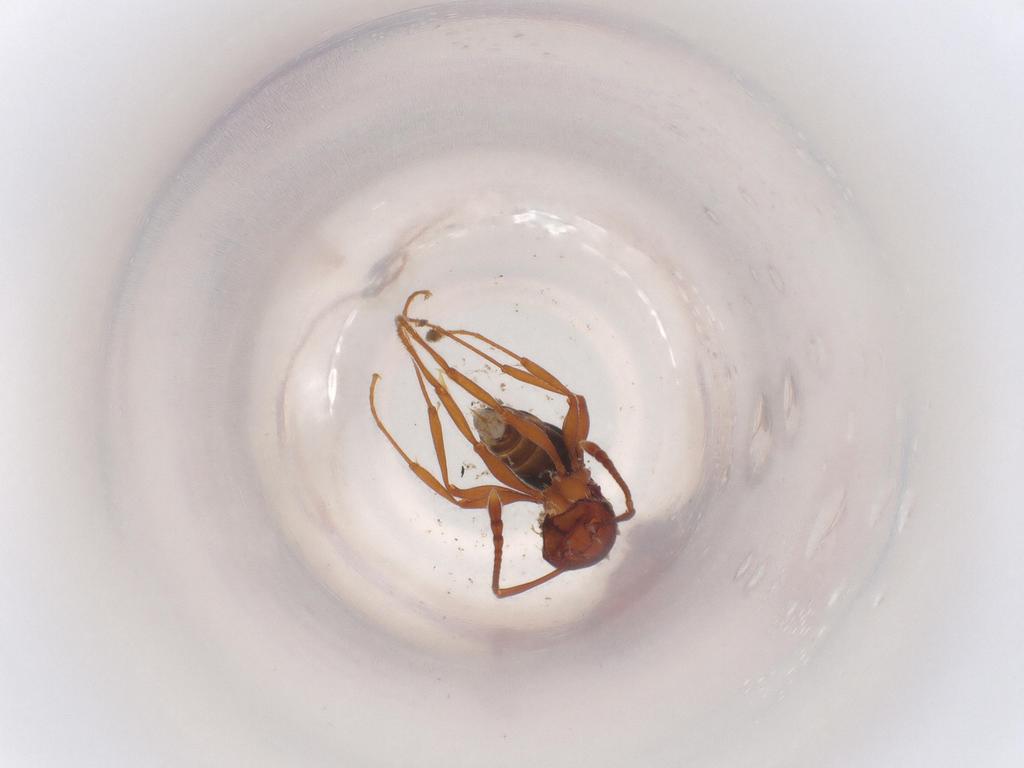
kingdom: Animalia
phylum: Arthropoda
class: Insecta
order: Hymenoptera
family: Formicidae
